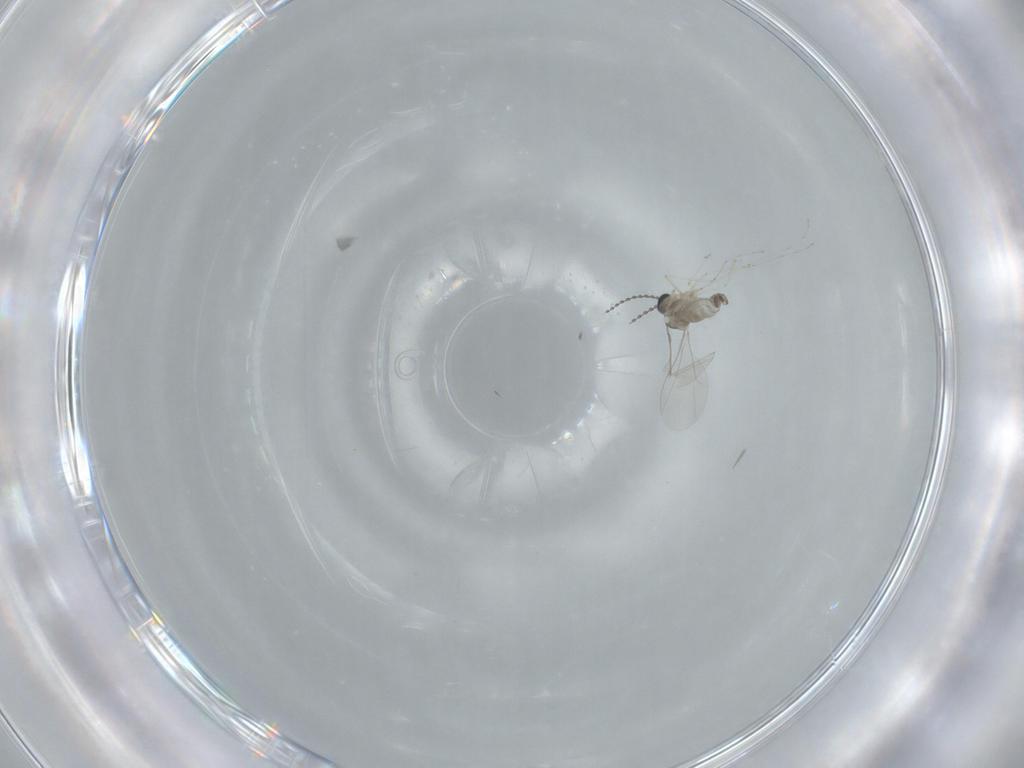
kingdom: Animalia
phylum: Arthropoda
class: Insecta
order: Diptera
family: Cecidomyiidae
